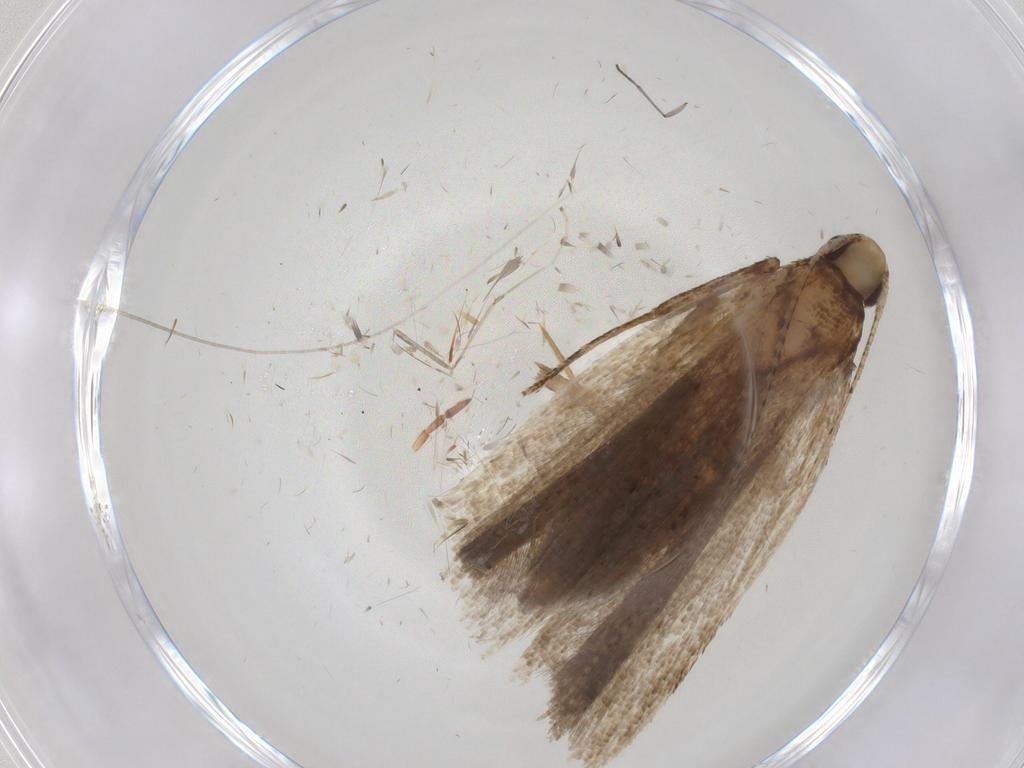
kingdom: Animalia
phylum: Arthropoda
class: Insecta
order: Lepidoptera
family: Gelechiidae
